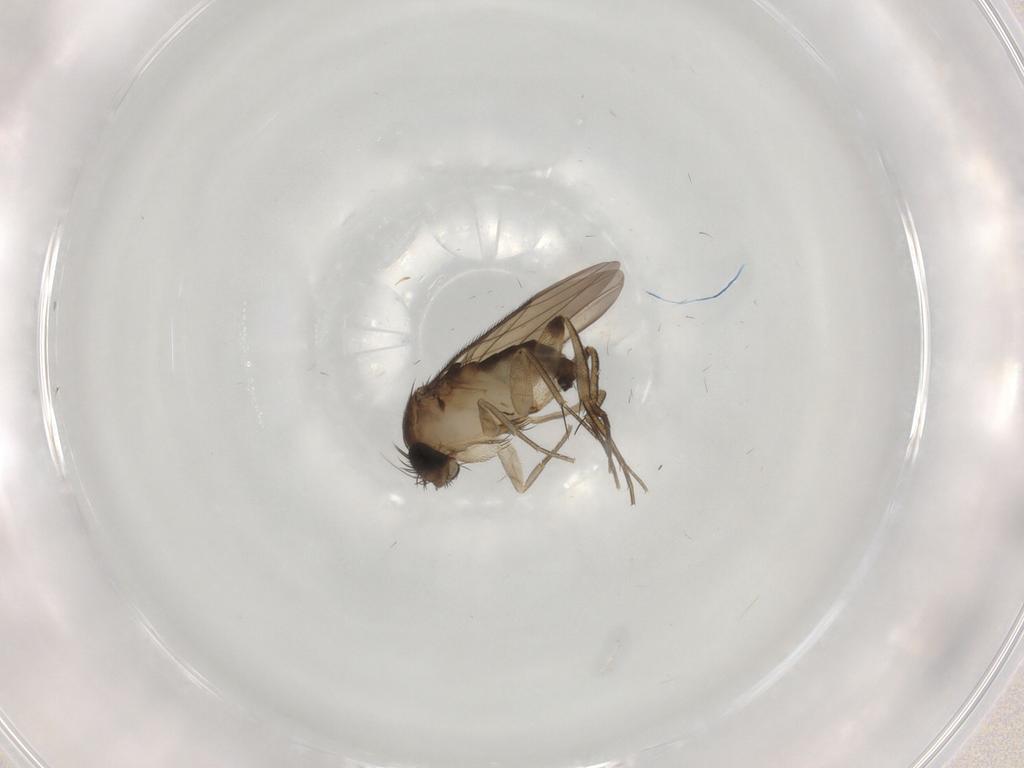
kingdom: Animalia
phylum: Arthropoda
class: Insecta
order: Diptera
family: Phoridae
